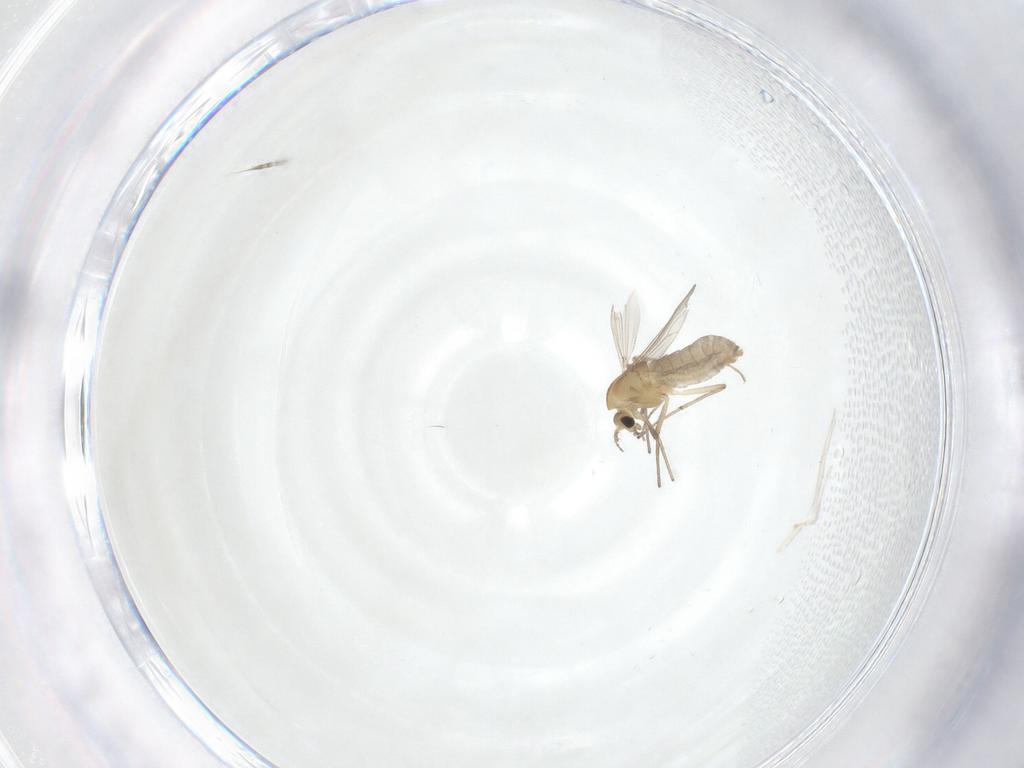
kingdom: Animalia
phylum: Arthropoda
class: Insecta
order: Diptera
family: Chironomidae
